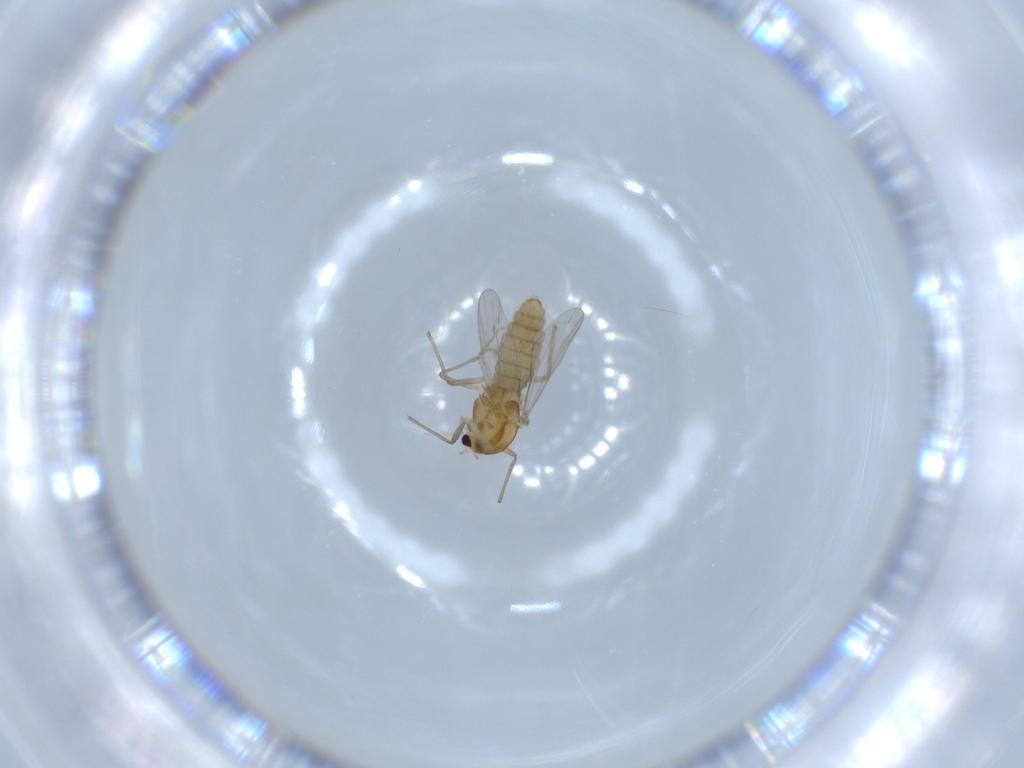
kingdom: Animalia
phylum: Arthropoda
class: Insecta
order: Diptera
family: Chironomidae
